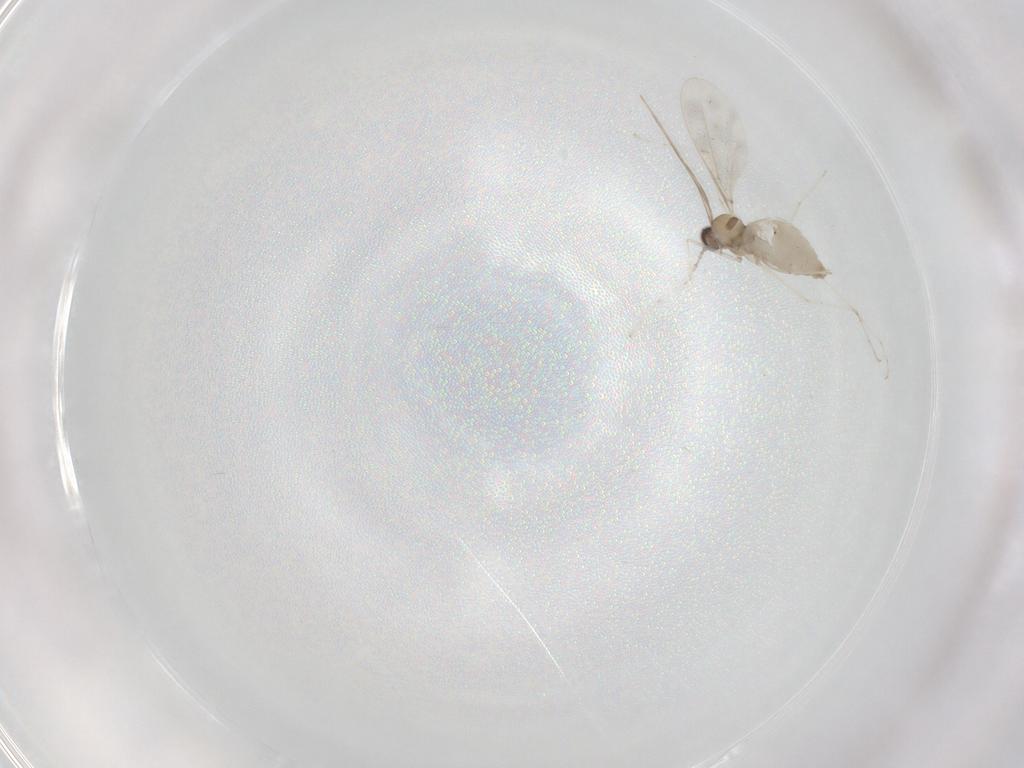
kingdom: Animalia
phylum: Arthropoda
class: Insecta
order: Diptera
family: Cecidomyiidae
